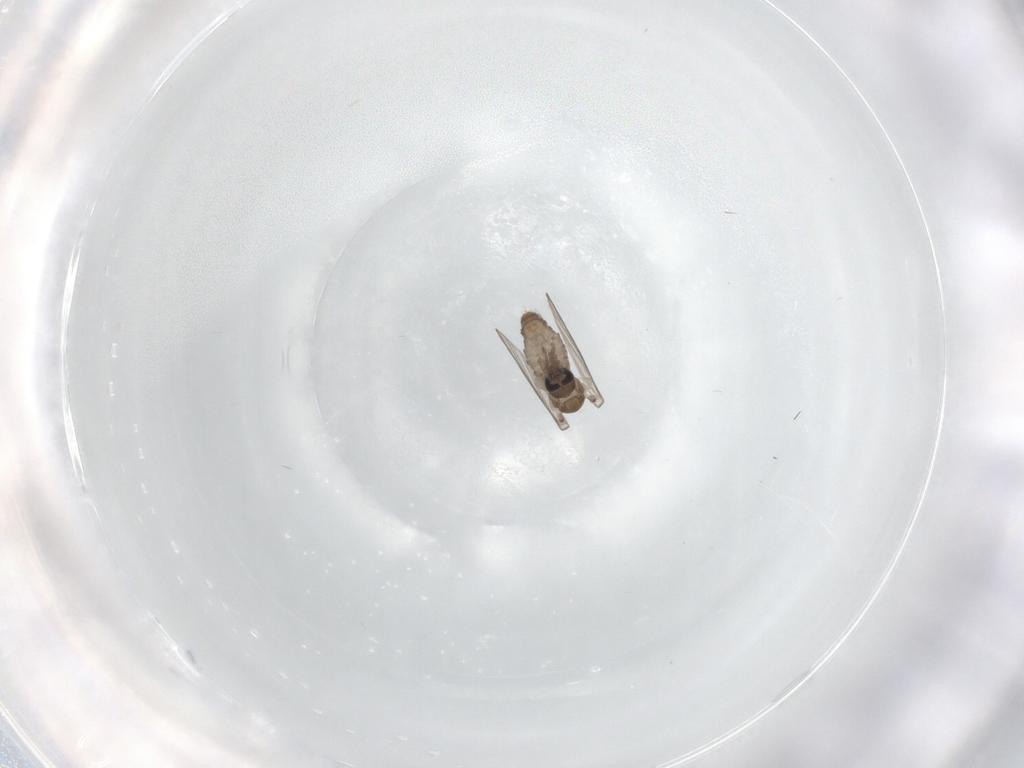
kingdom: Animalia
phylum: Arthropoda
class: Insecta
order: Diptera
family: Psychodidae
